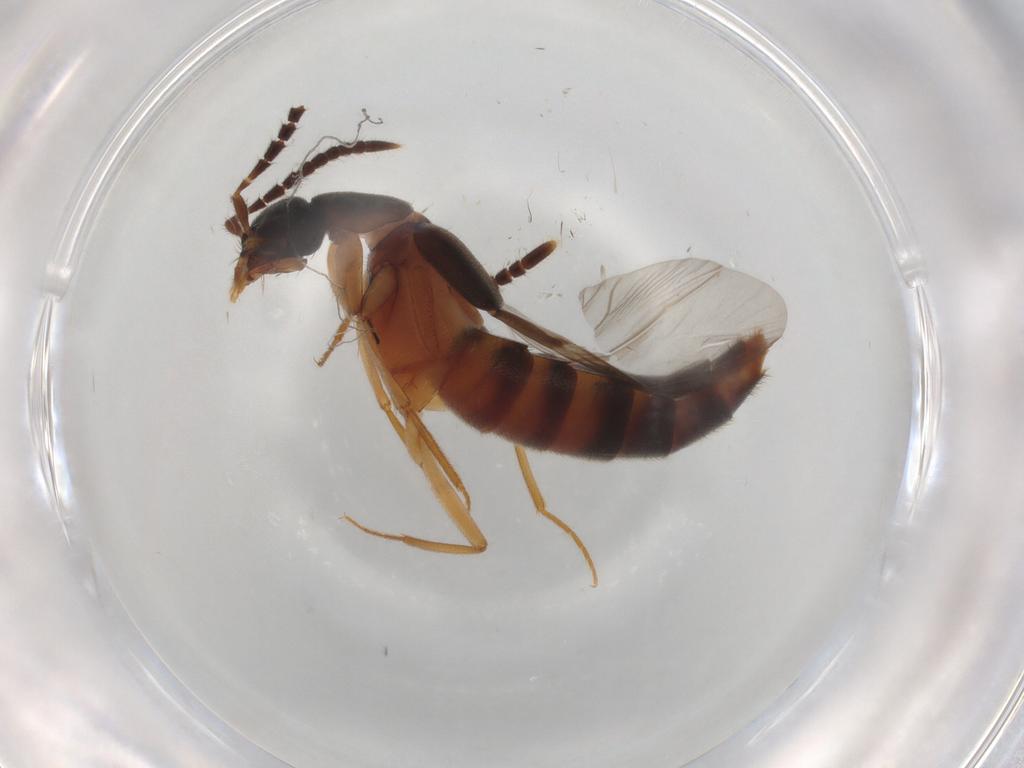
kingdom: Animalia
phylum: Arthropoda
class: Insecta
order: Coleoptera
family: Staphylinidae
